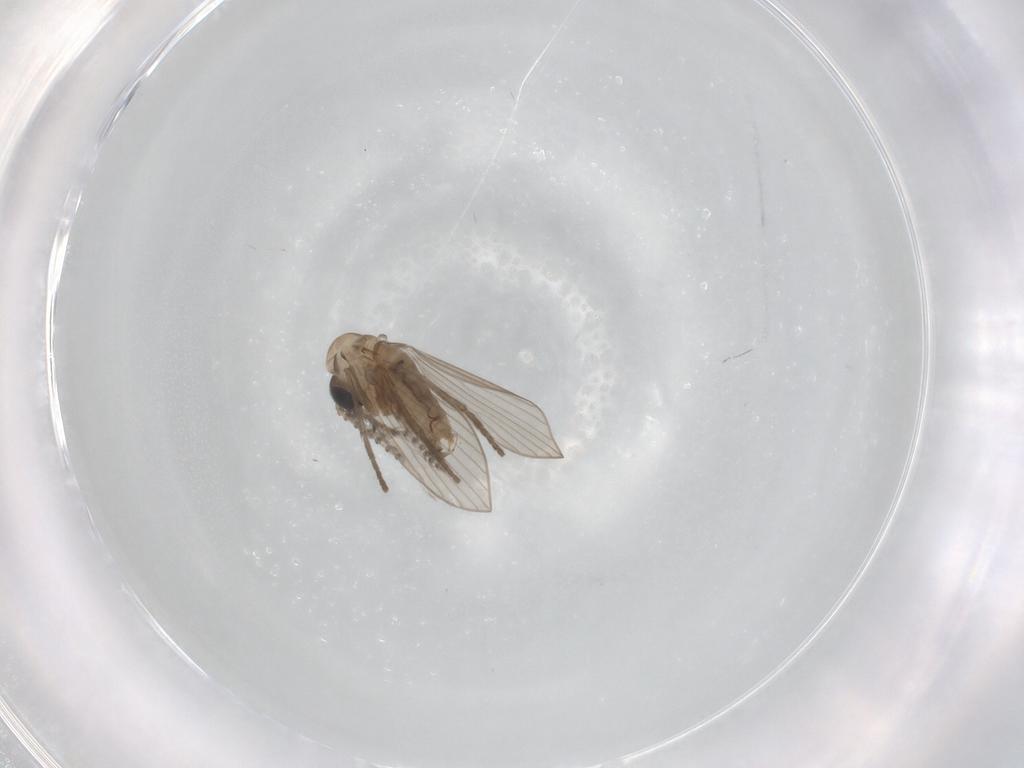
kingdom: Animalia
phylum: Arthropoda
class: Insecta
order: Diptera
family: Psychodidae
